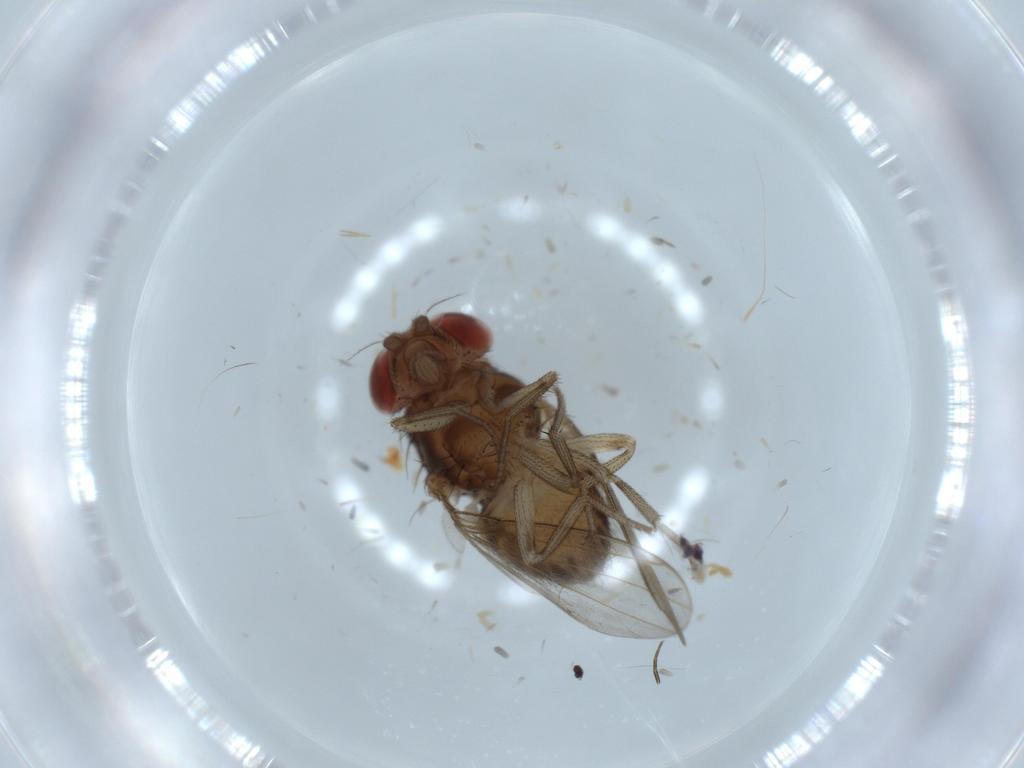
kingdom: Animalia
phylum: Arthropoda
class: Insecta
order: Diptera
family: Drosophilidae
